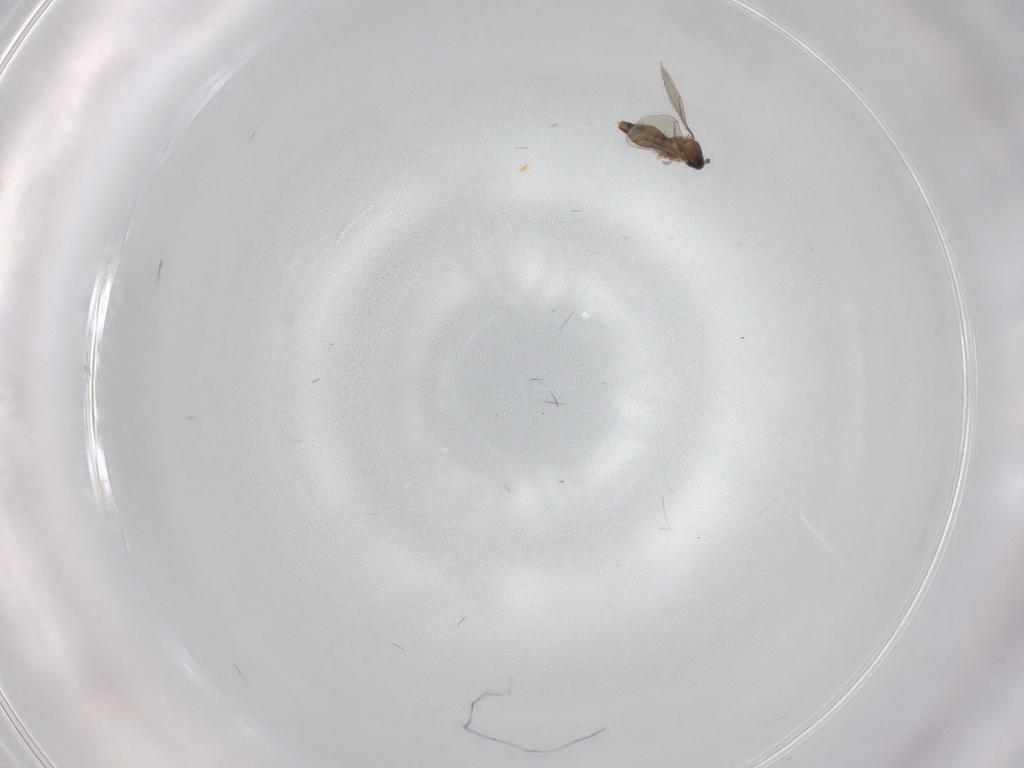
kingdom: Animalia
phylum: Arthropoda
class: Insecta
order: Diptera
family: Cecidomyiidae
